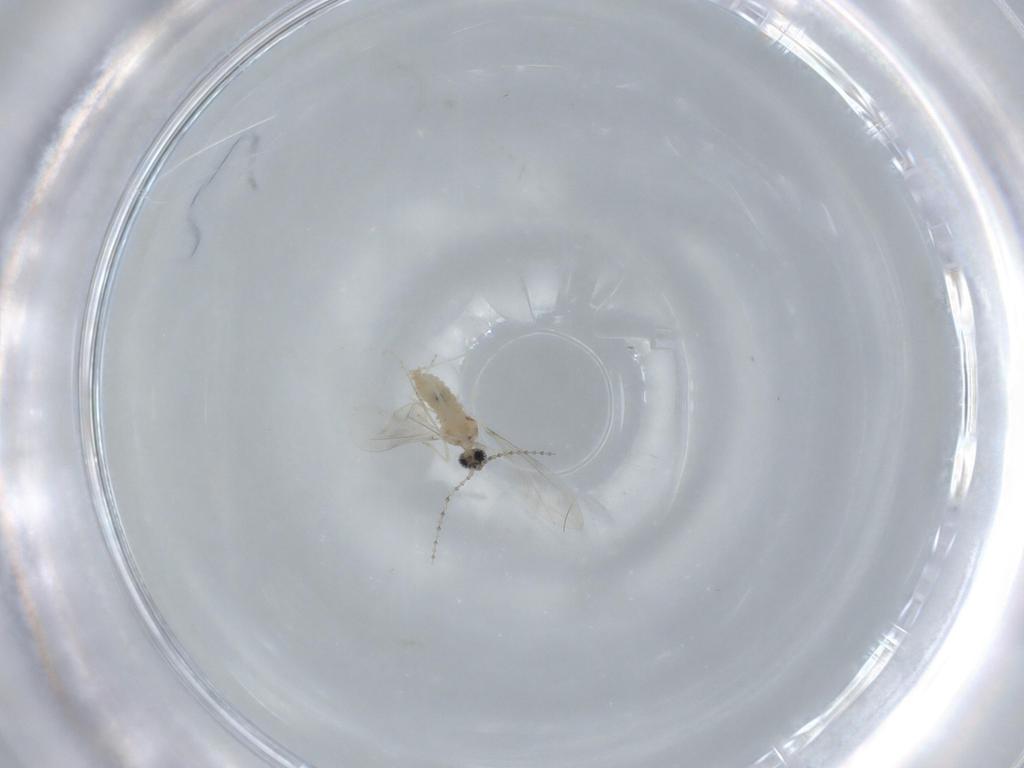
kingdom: Animalia
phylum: Arthropoda
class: Insecta
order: Diptera
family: Cecidomyiidae
